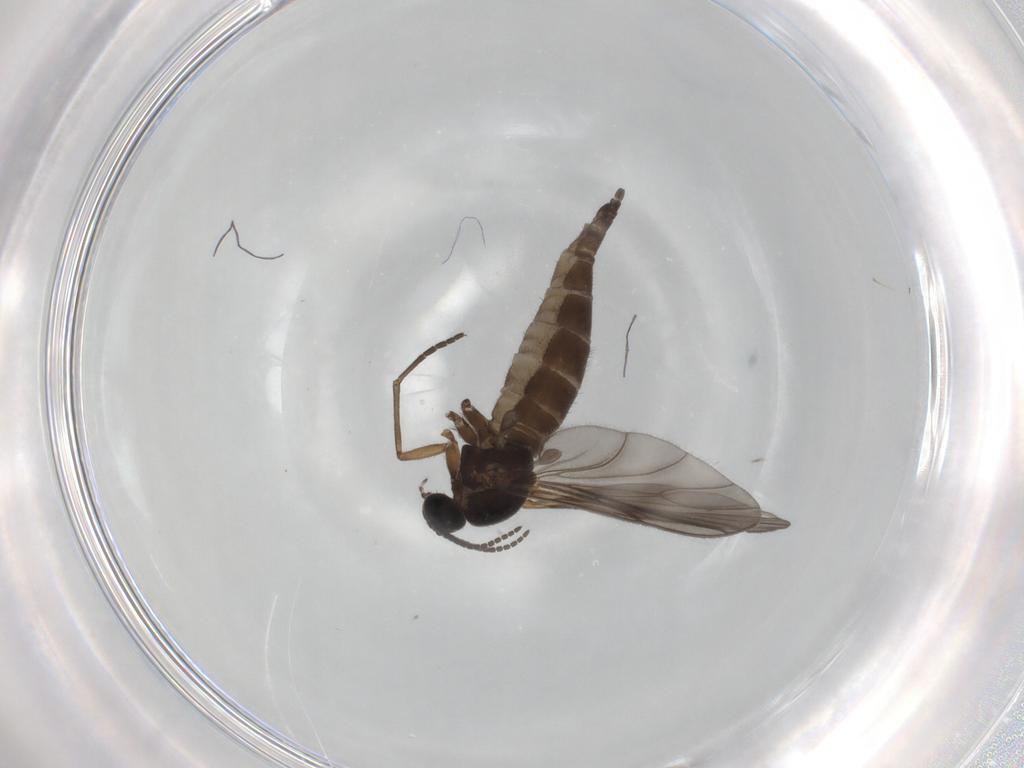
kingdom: Animalia
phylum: Arthropoda
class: Insecta
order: Diptera
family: Sciaridae
